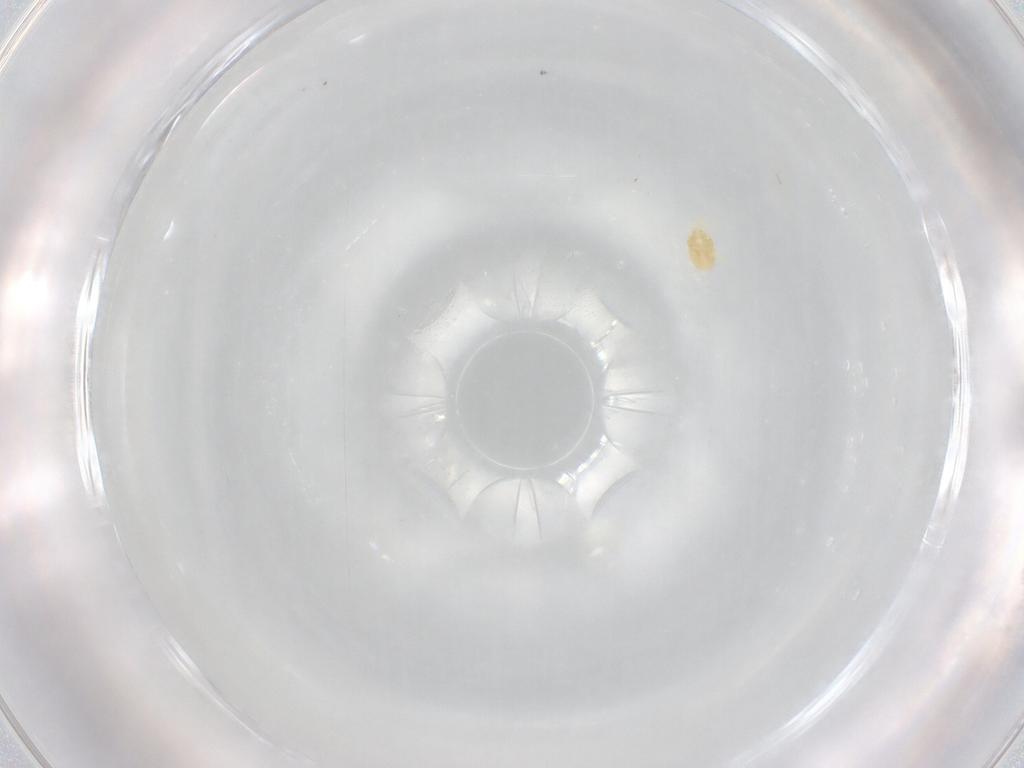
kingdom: Animalia
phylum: Arthropoda
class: Arachnida
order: Trombidiformes
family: Eupodidae
